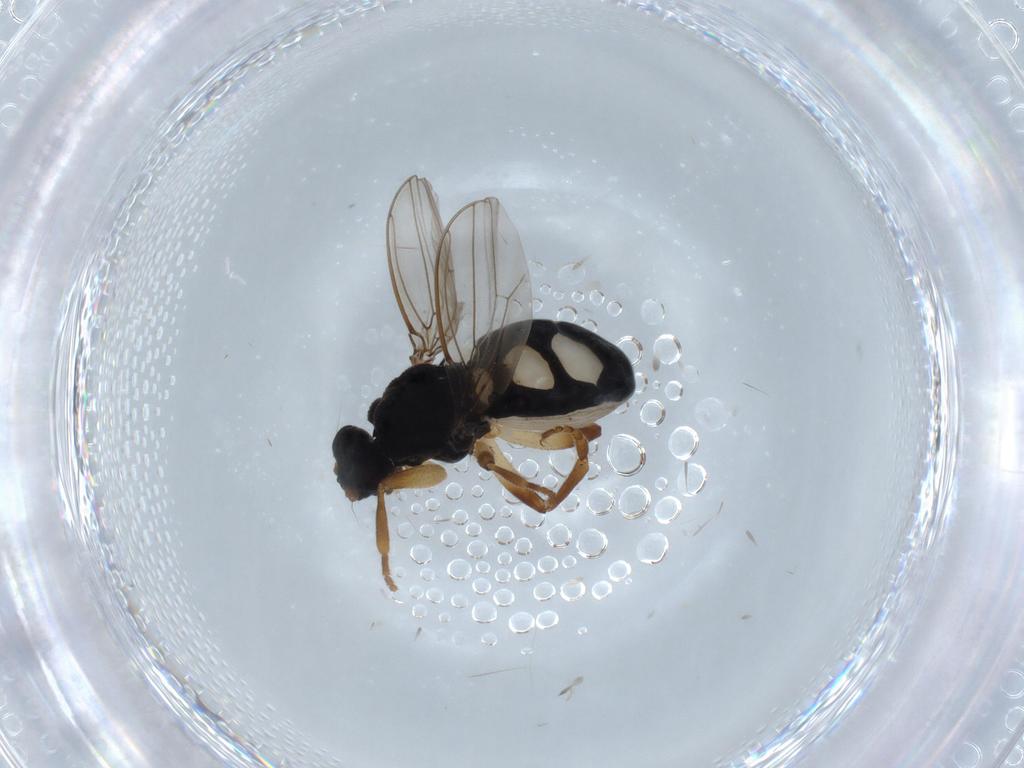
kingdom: Animalia
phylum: Arthropoda
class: Insecta
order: Diptera
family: Sphaeroceridae
